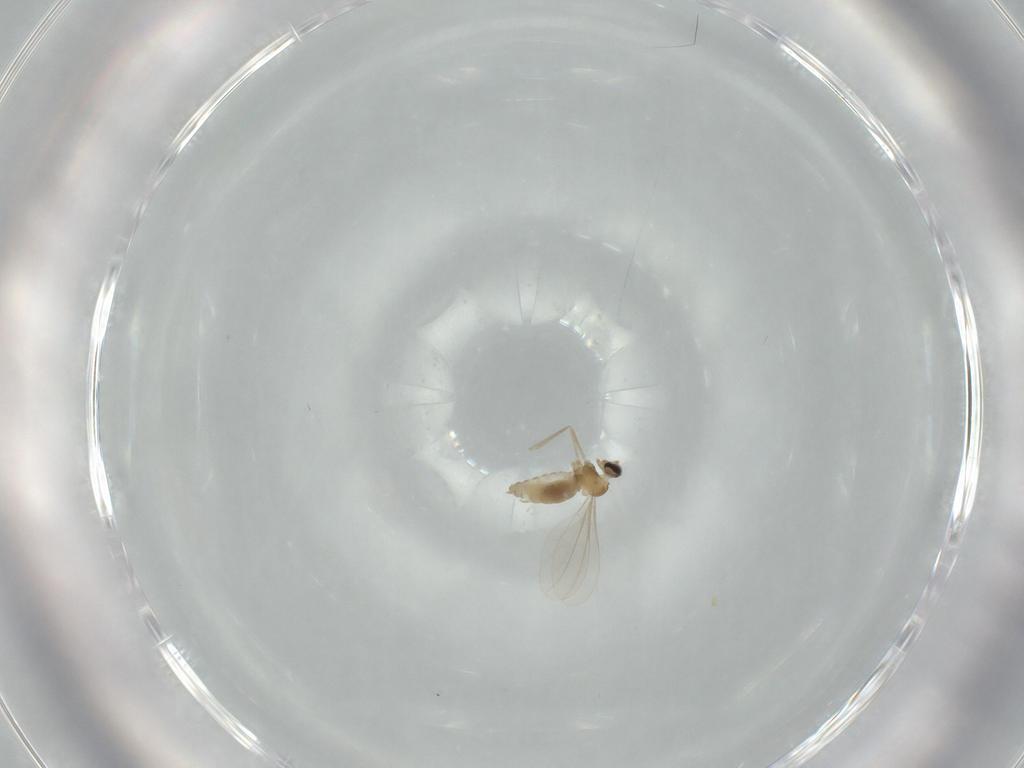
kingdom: Animalia
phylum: Arthropoda
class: Insecta
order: Diptera
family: Cecidomyiidae
